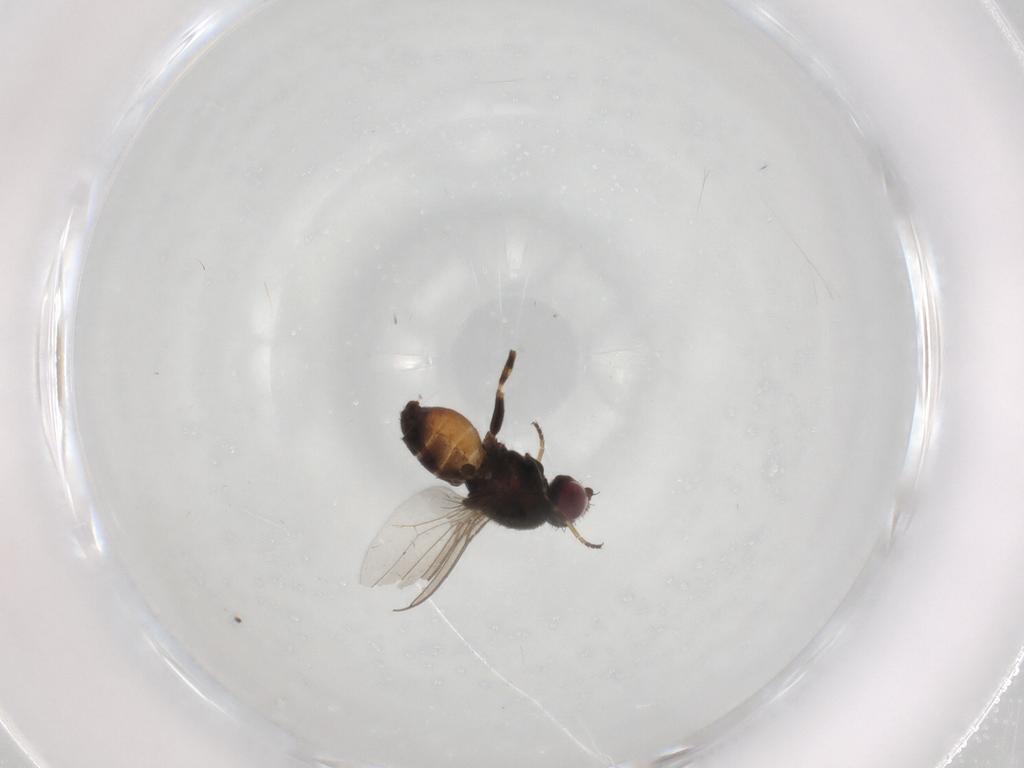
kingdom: Animalia
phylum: Arthropoda
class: Insecta
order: Diptera
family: Chloropidae
